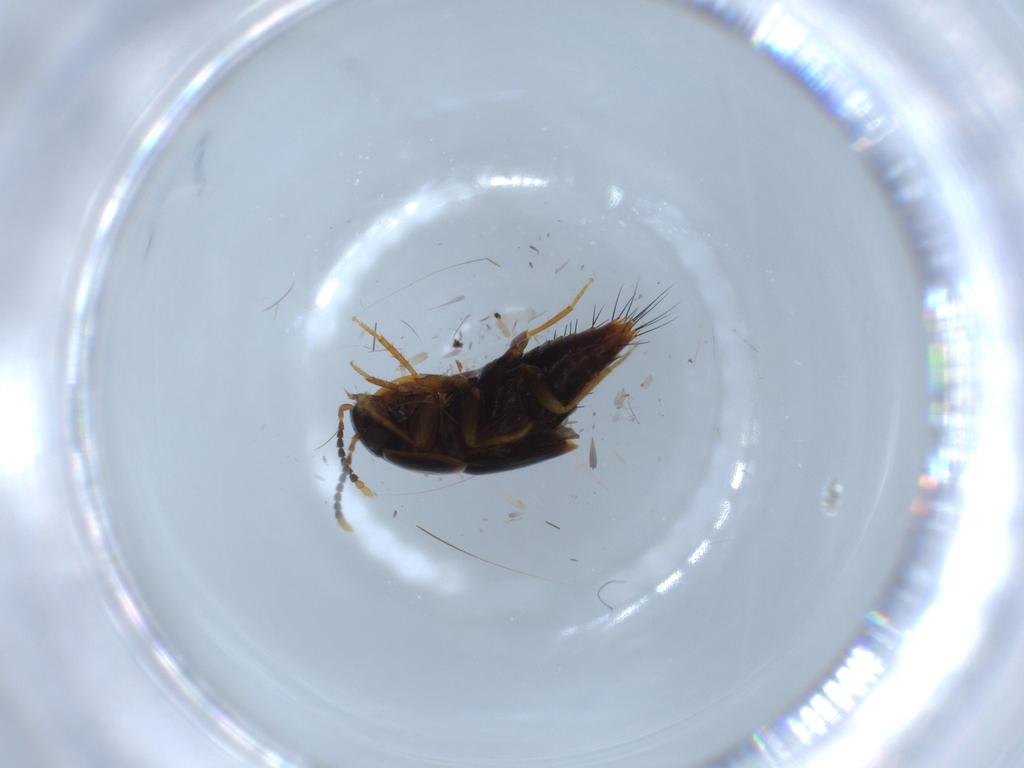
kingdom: Animalia
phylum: Arthropoda
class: Insecta
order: Coleoptera
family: Staphylinidae
